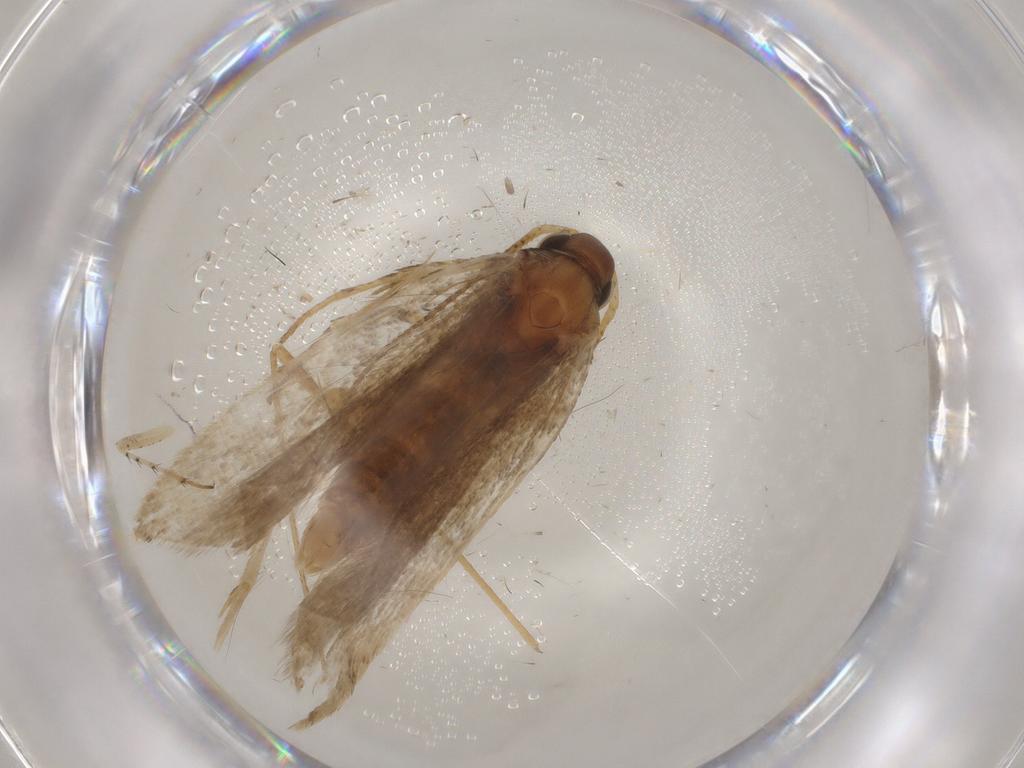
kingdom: Animalia
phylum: Arthropoda
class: Insecta
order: Lepidoptera
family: Gelechiidae
